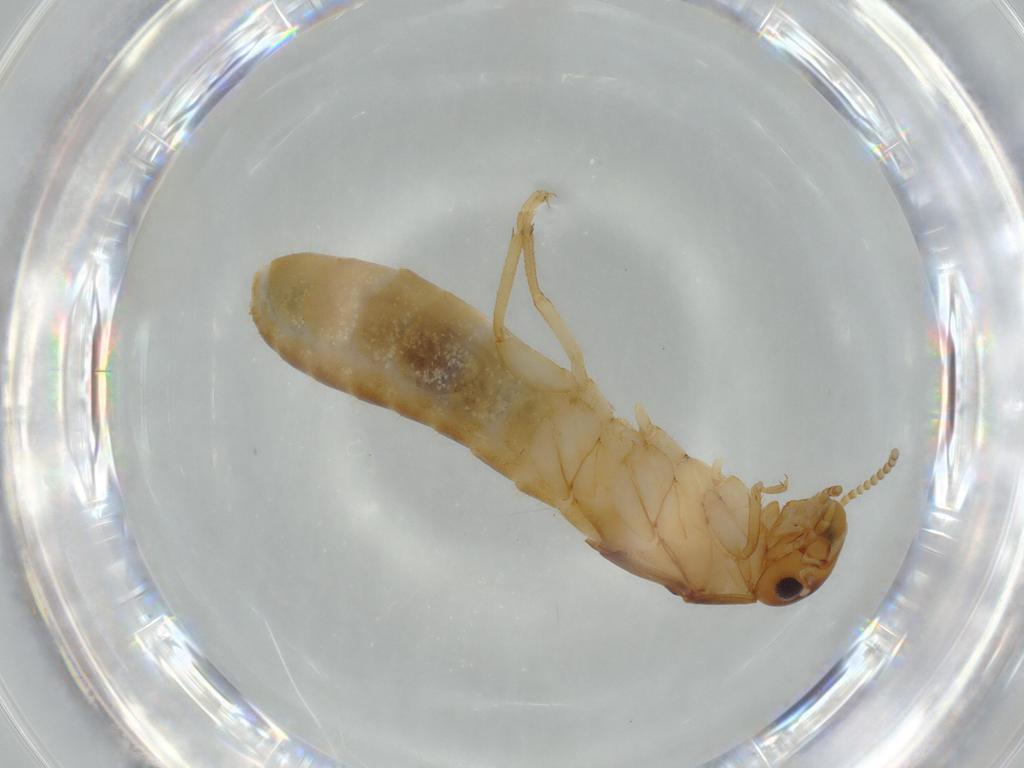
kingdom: Animalia
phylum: Arthropoda
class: Insecta
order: Blattodea
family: Kalotermitidae
